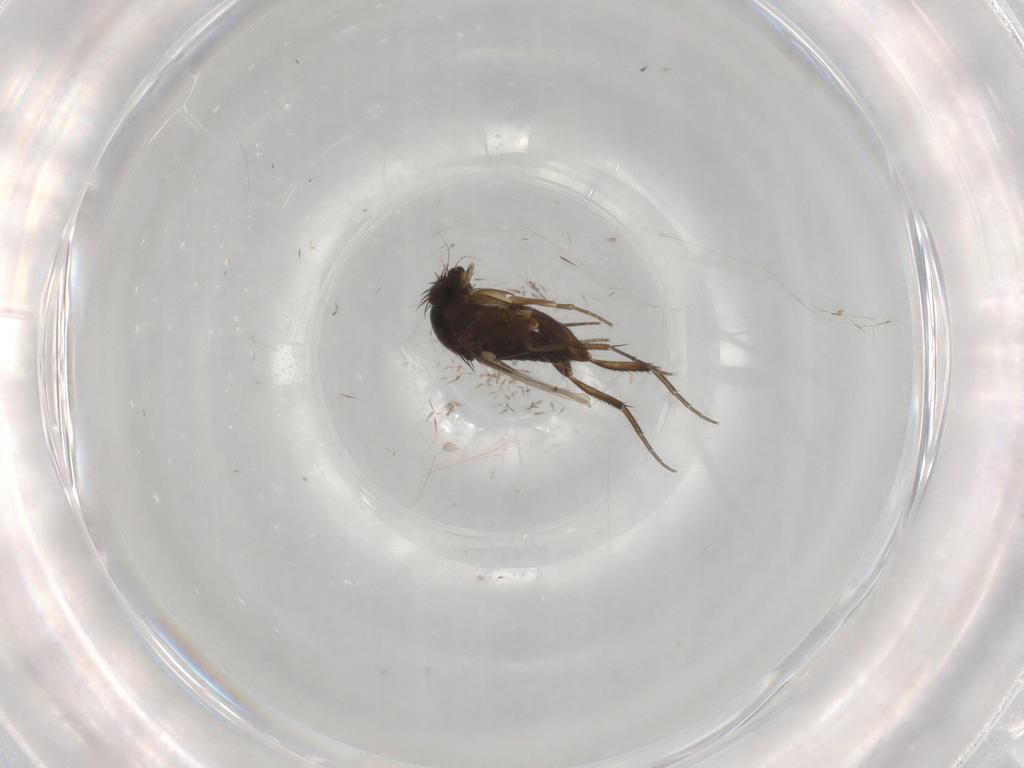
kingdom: Animalia
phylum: Arthropoda
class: Insecta
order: Diptera
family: Phoridae
